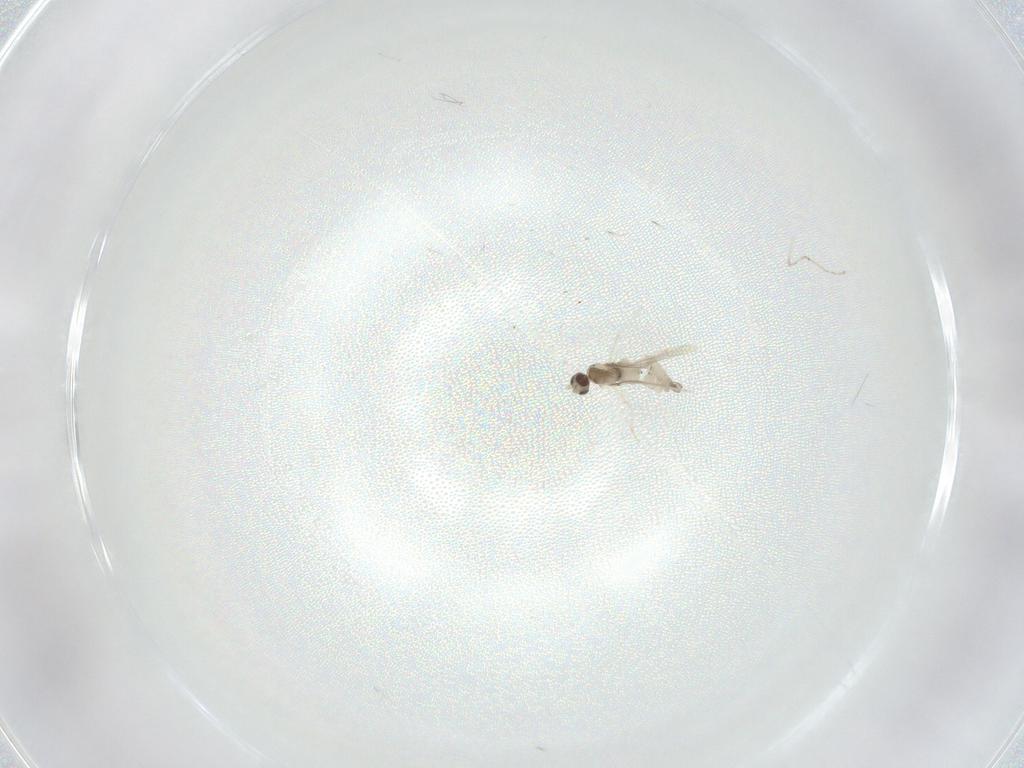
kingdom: Animalia
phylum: Arthropoda
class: Insecta
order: Diptera
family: Cecidomyiidae
